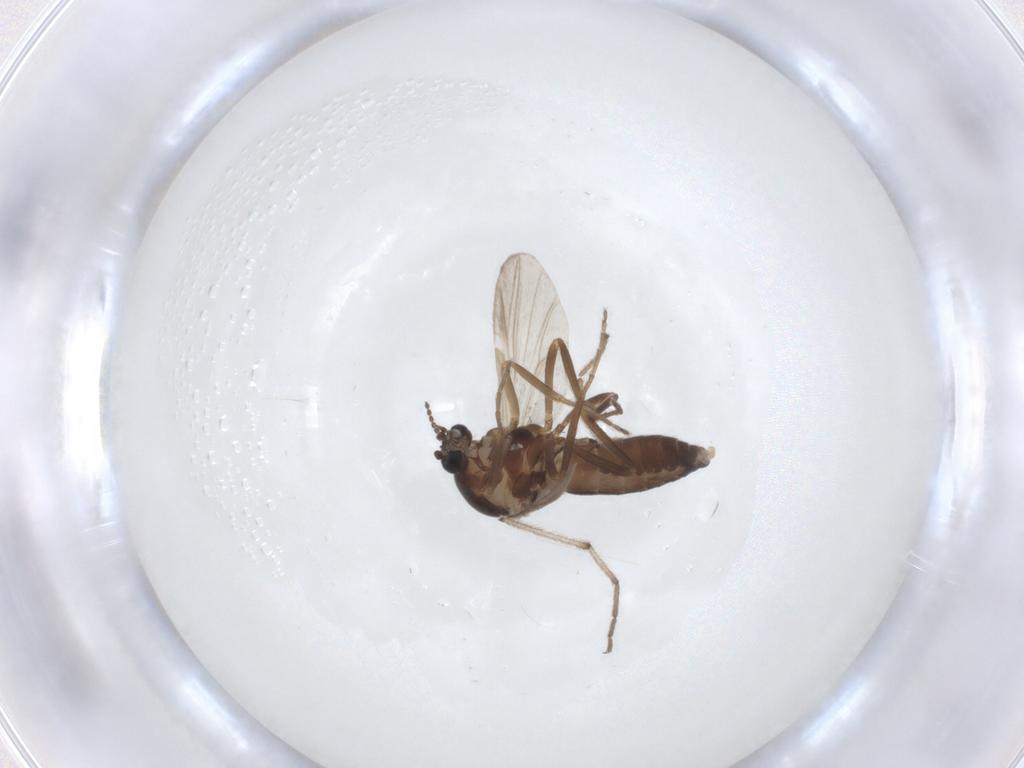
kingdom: Animalia
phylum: Arthropoda
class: Insecta
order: Diptera
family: Ceratopogonidae
